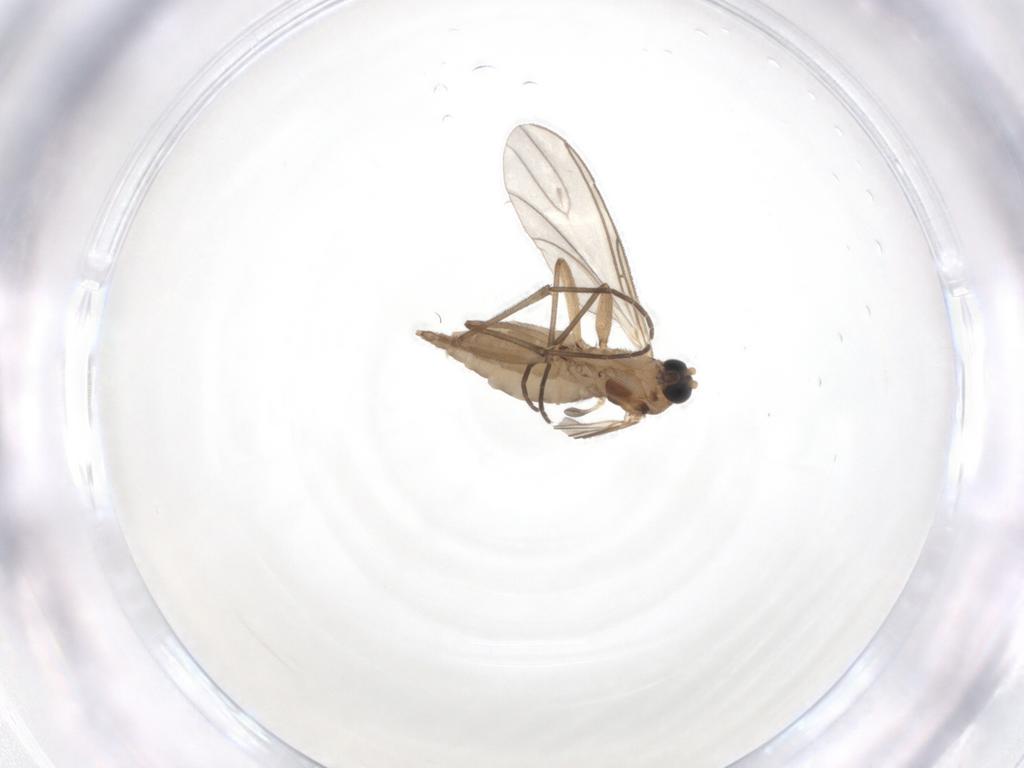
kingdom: Animalia
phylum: Arthropoda
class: Insecta
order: Diptera
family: Sciaridae
